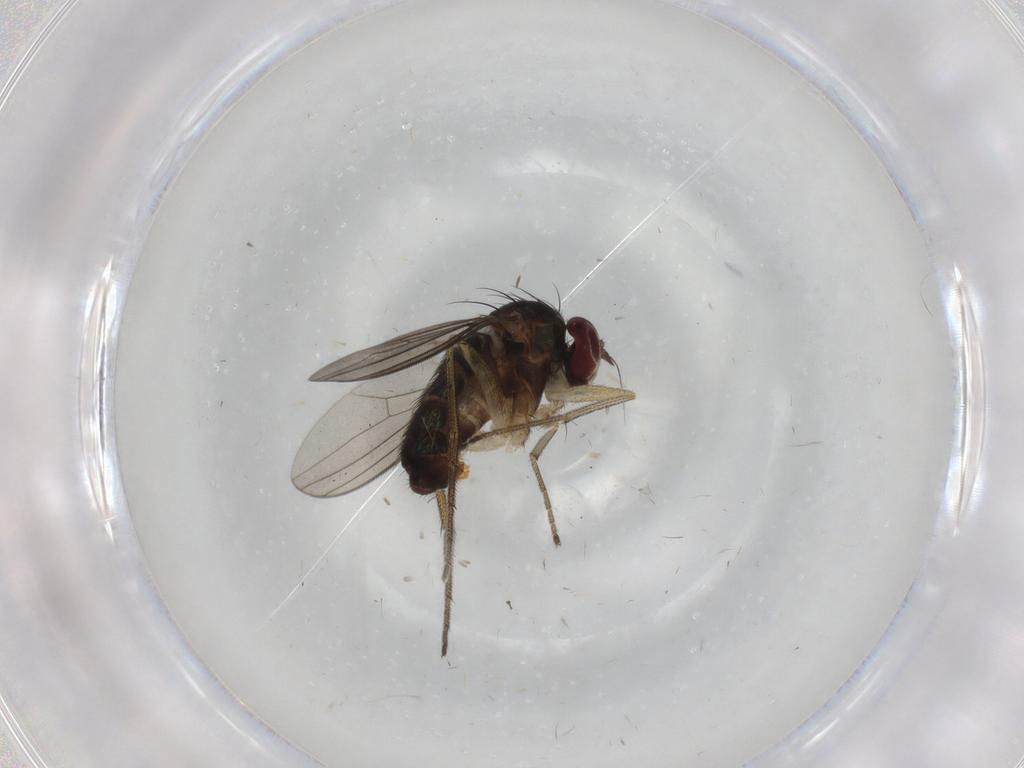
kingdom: Animalia
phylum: Arthropoda
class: Insecta
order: Diptera
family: Dolichopodidae
